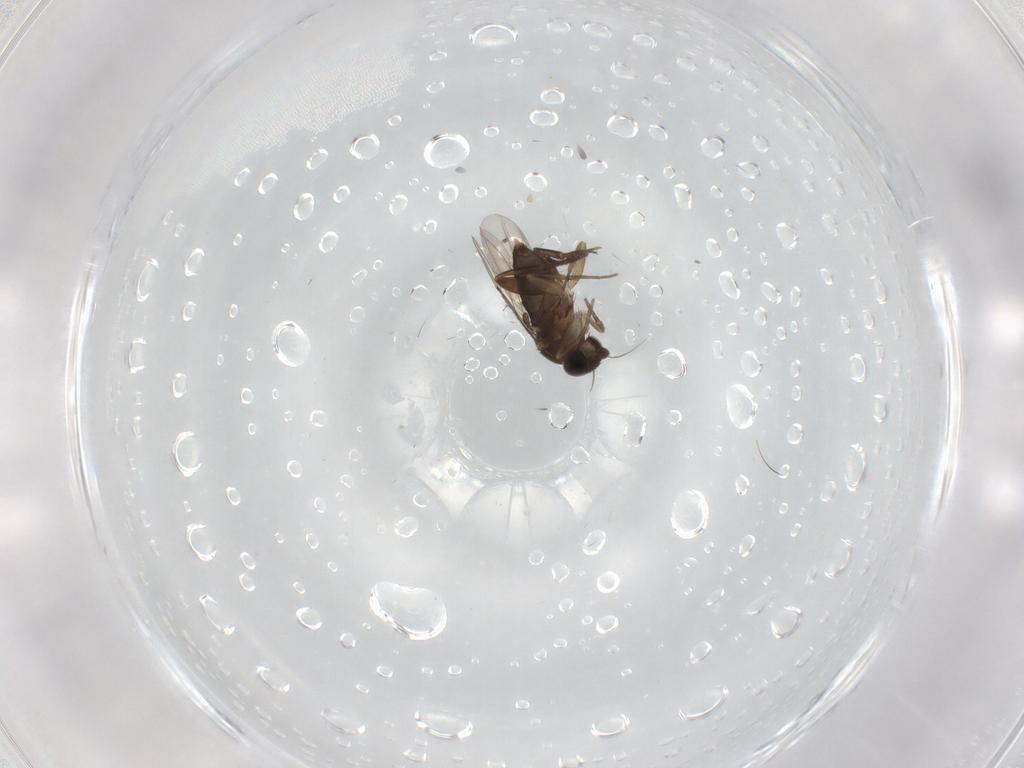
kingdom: Animalia
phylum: Arthropoda
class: Insecta
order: Diptera
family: Phoridae
